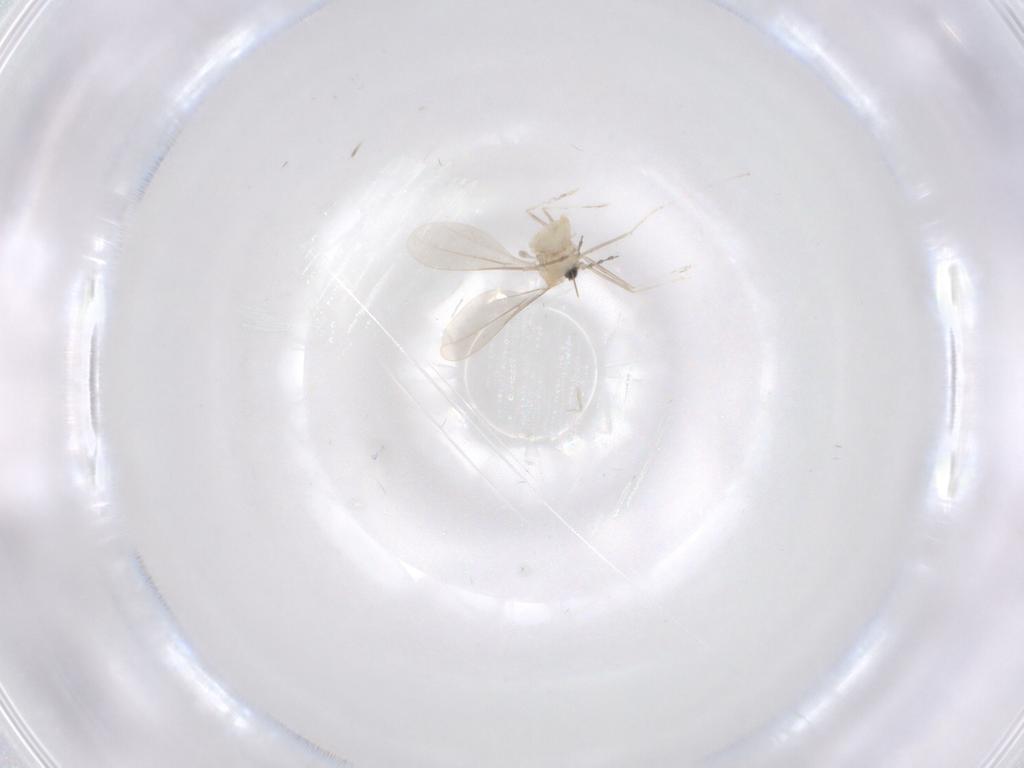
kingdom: Animalia
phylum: Arthropoda
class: Insecta
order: Diptera
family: Cecidomyiidae
